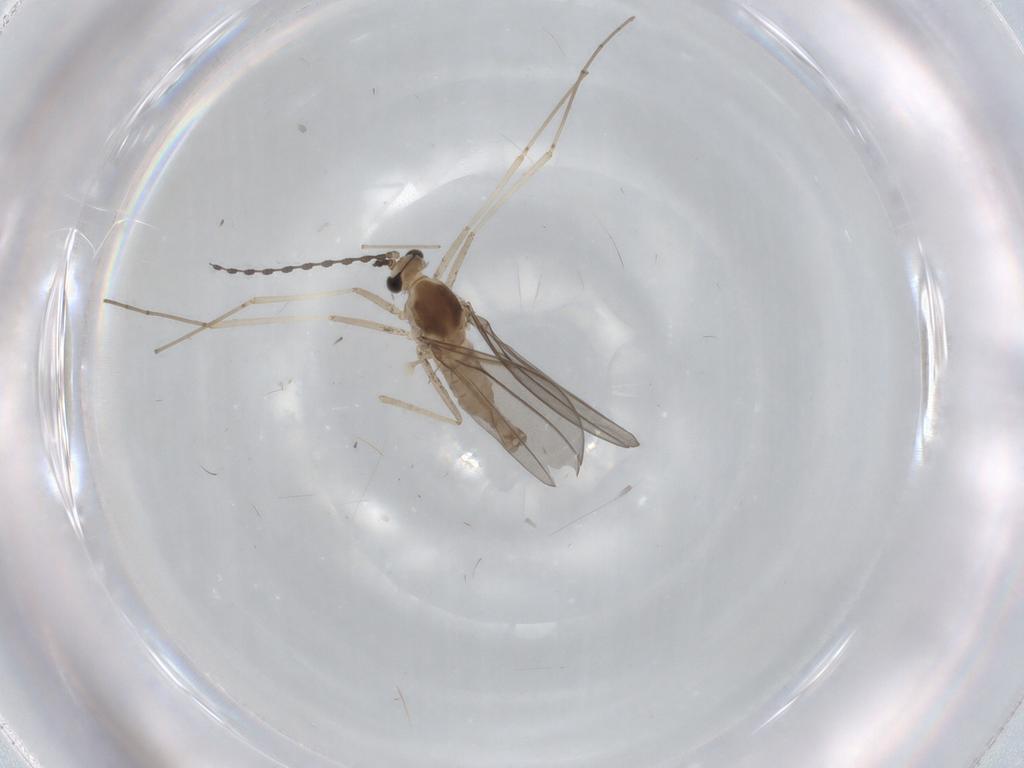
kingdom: Animalia
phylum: Arthropoda
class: Insecta
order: Diptera
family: Cecidomyiidae
